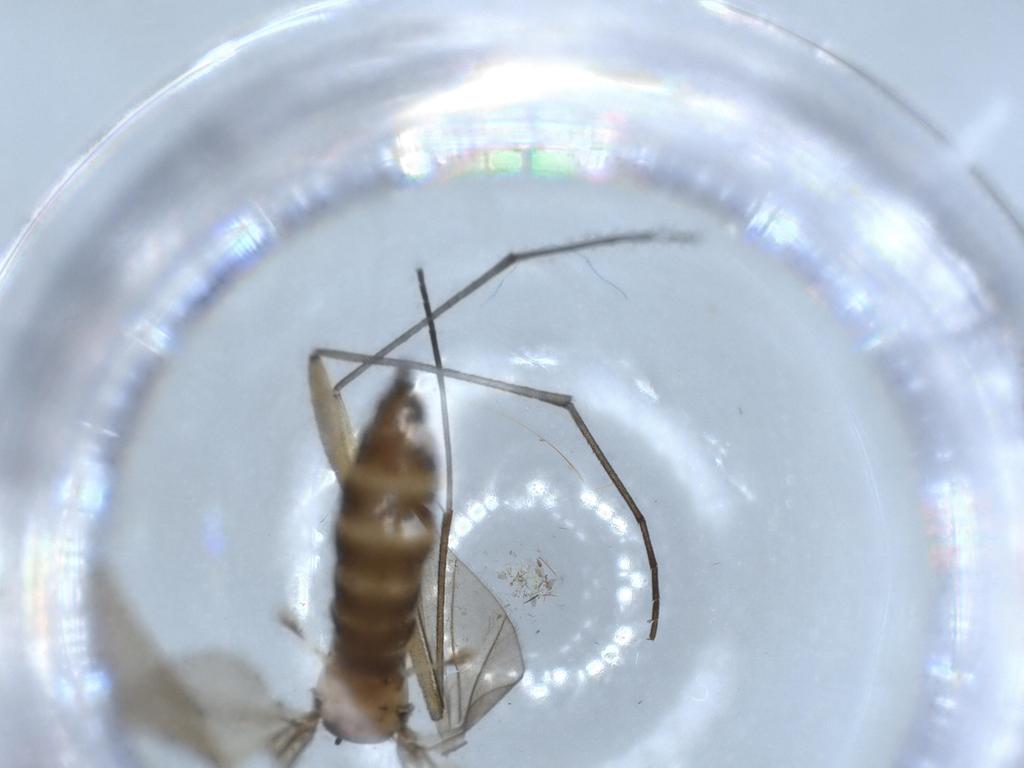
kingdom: Animalia
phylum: Arthropoda
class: Insecta
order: Diptera
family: Sciaridae
